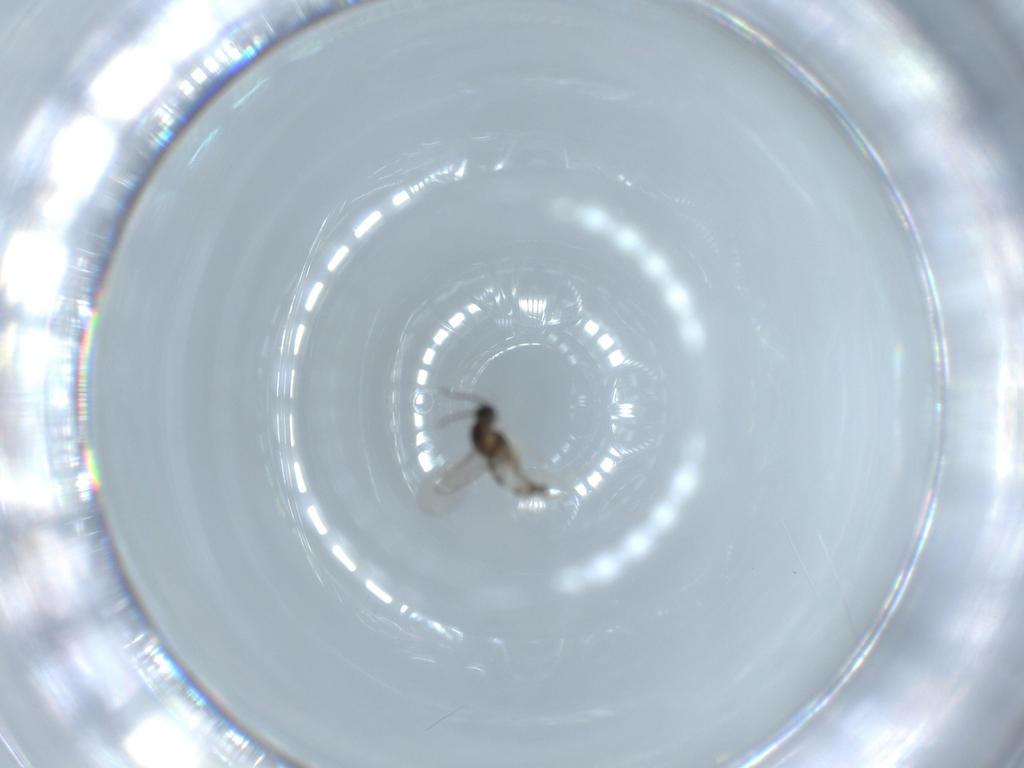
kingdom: Animalia
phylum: Arthropoda
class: Insecta
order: Diptera
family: Cecidomyiidae
